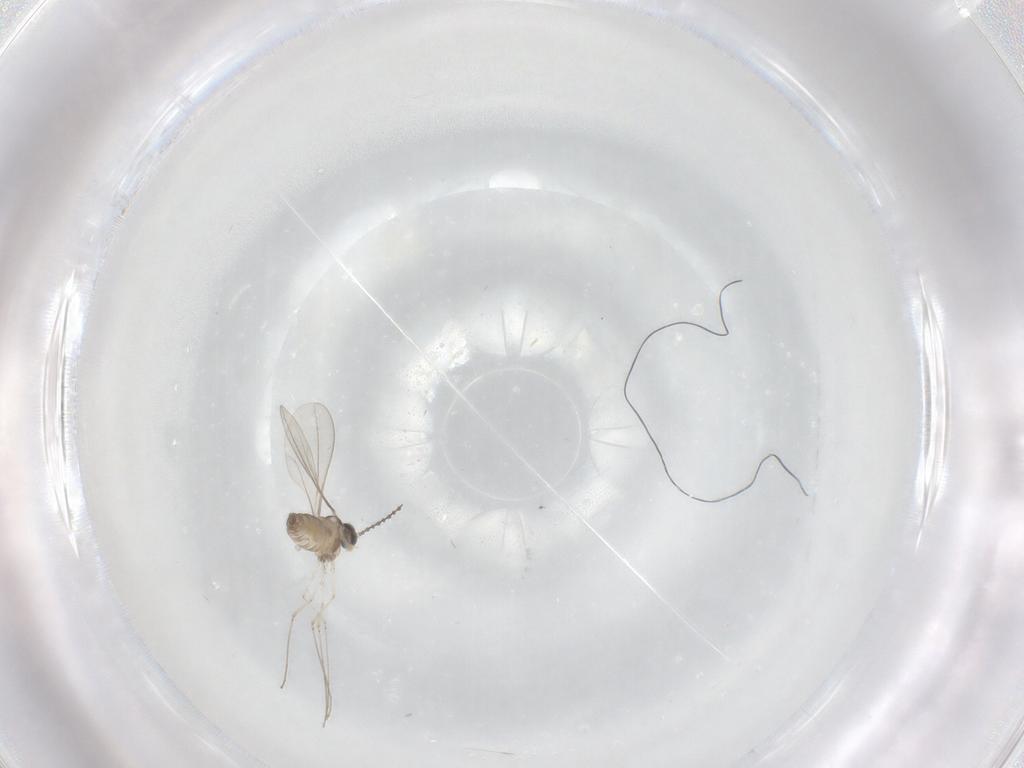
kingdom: Animalia
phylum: Arthropoda
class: Insecta
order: Diptera
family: Cecidomyiidae
